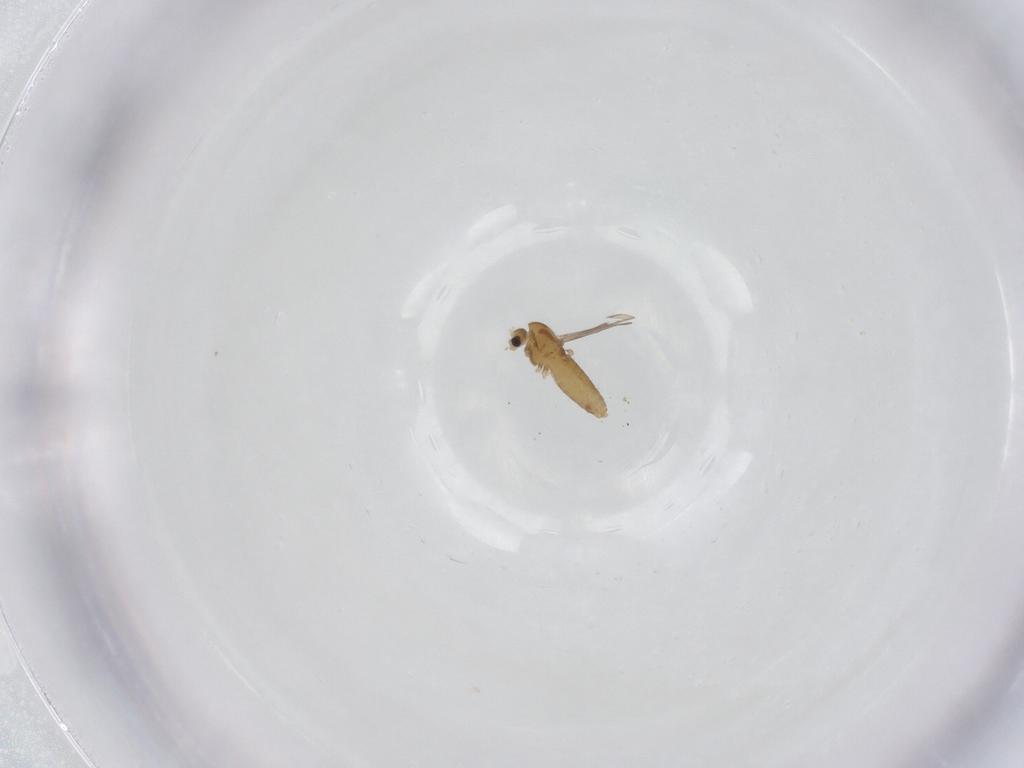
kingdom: Animalia
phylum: Arthropoda
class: Insecta
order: Diptera
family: Chironomidae
